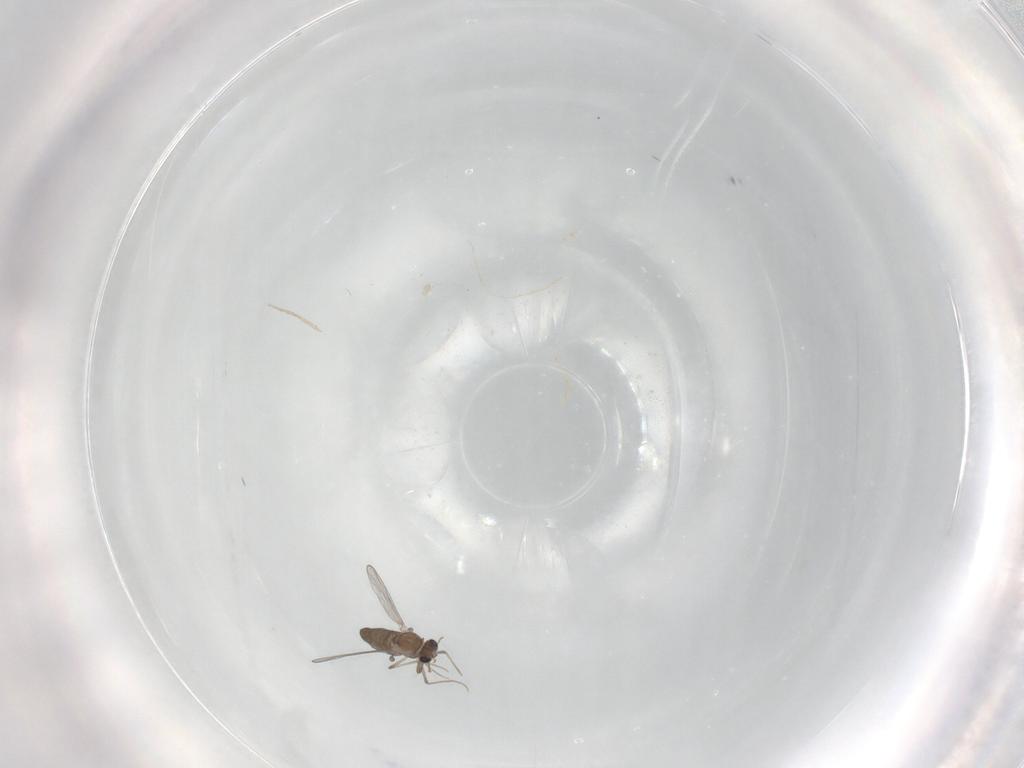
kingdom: Animalia
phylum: Arthropoda
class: Insecta
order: Diptera
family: Chironomidae
